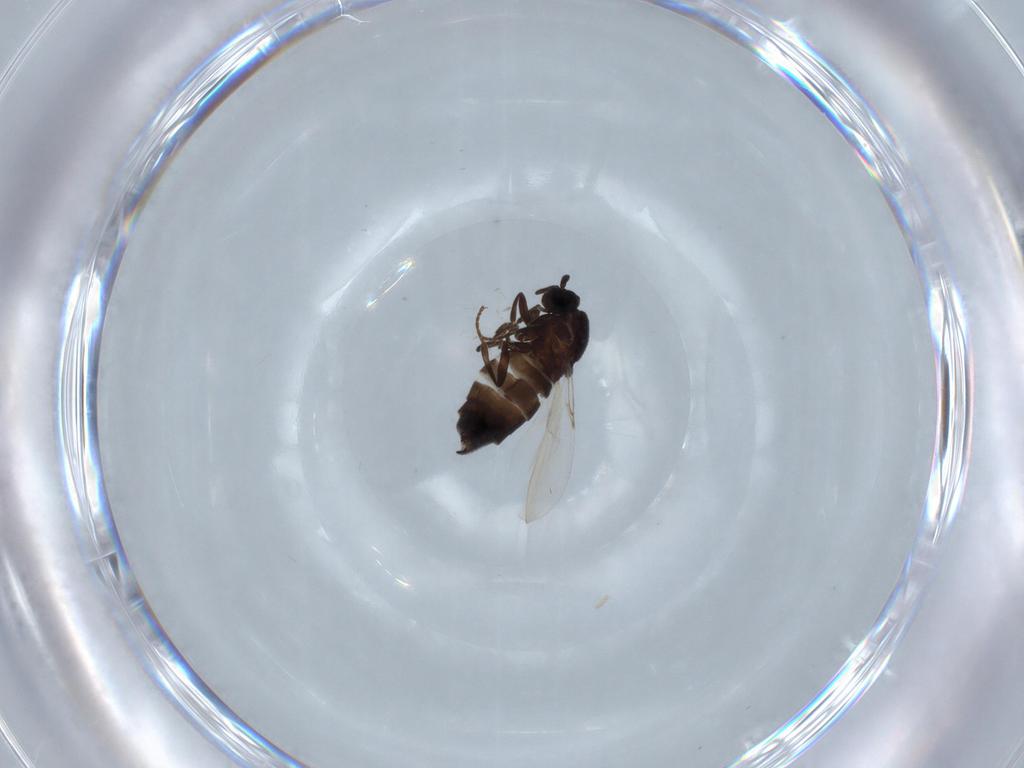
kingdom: Animalia
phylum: Arthropoda
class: Insecta
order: Diptera
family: Scatopsidae
